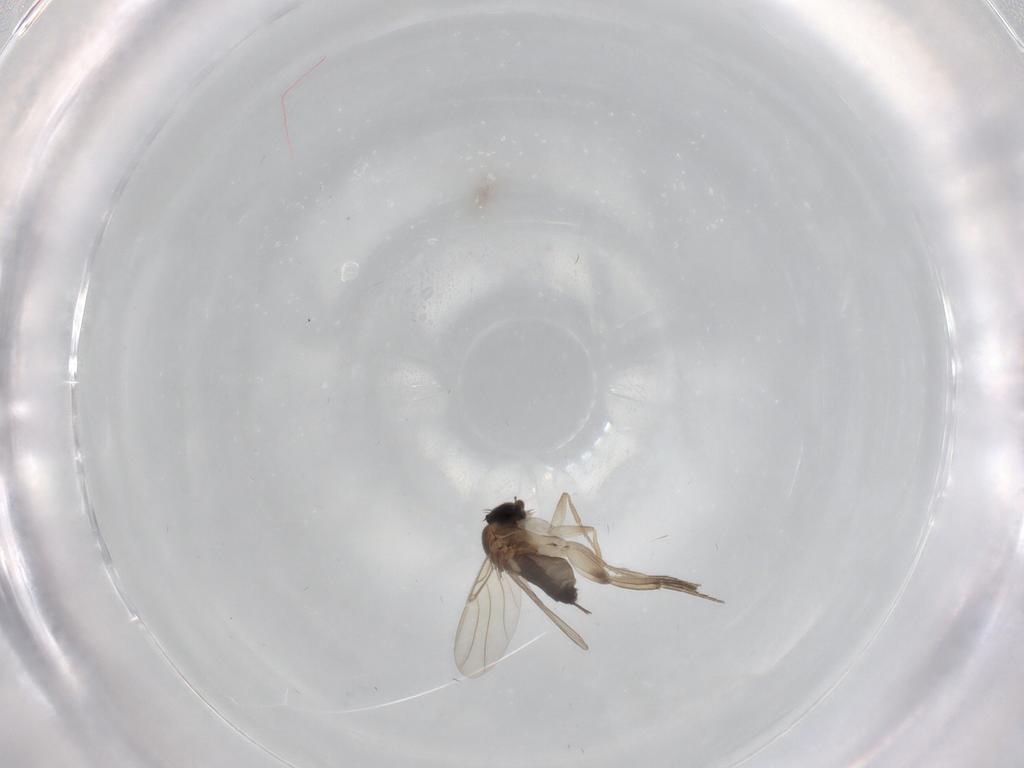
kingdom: Animalia
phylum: Arthropoda
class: Insecta
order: Diptera
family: Phoridae
